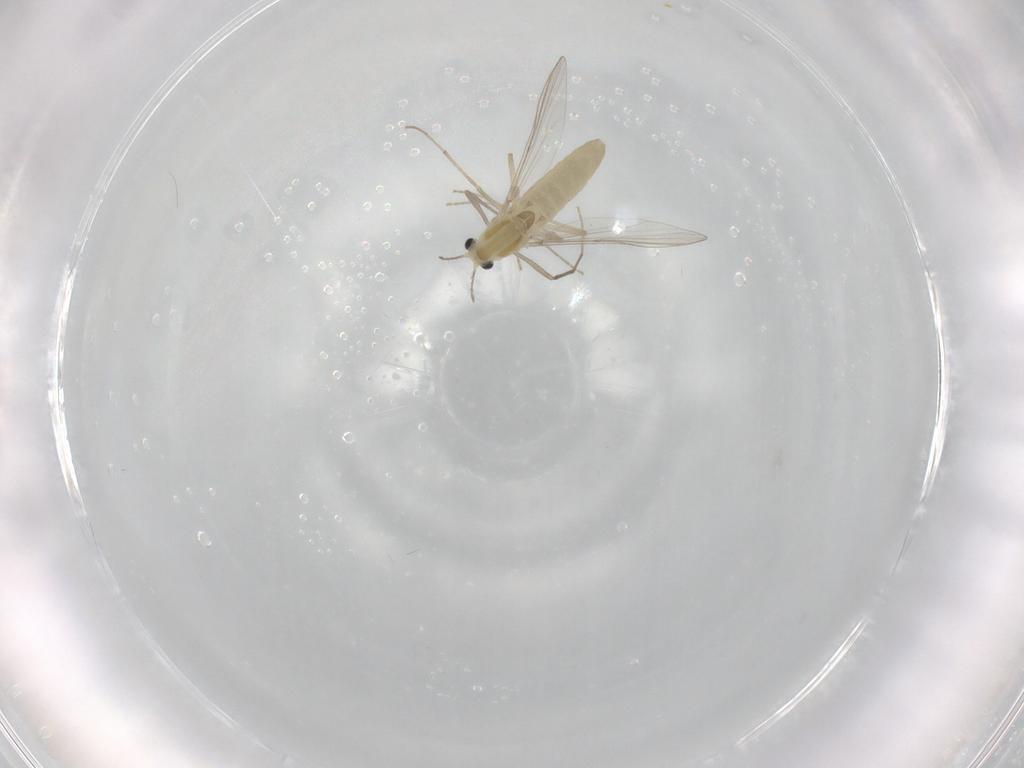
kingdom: Animalia
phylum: Arthropoda
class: Insecta
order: Diptera
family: Chironomidae
